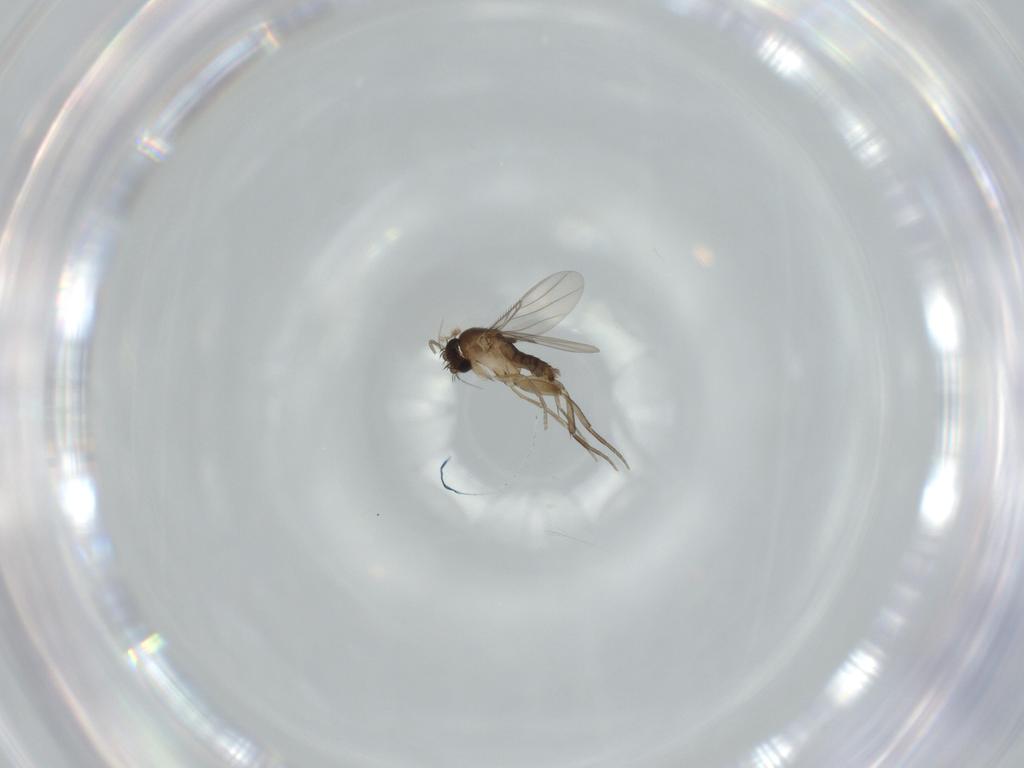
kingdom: Animalia
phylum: Arthropoda
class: Insecta
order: Diptera
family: Phoridae
